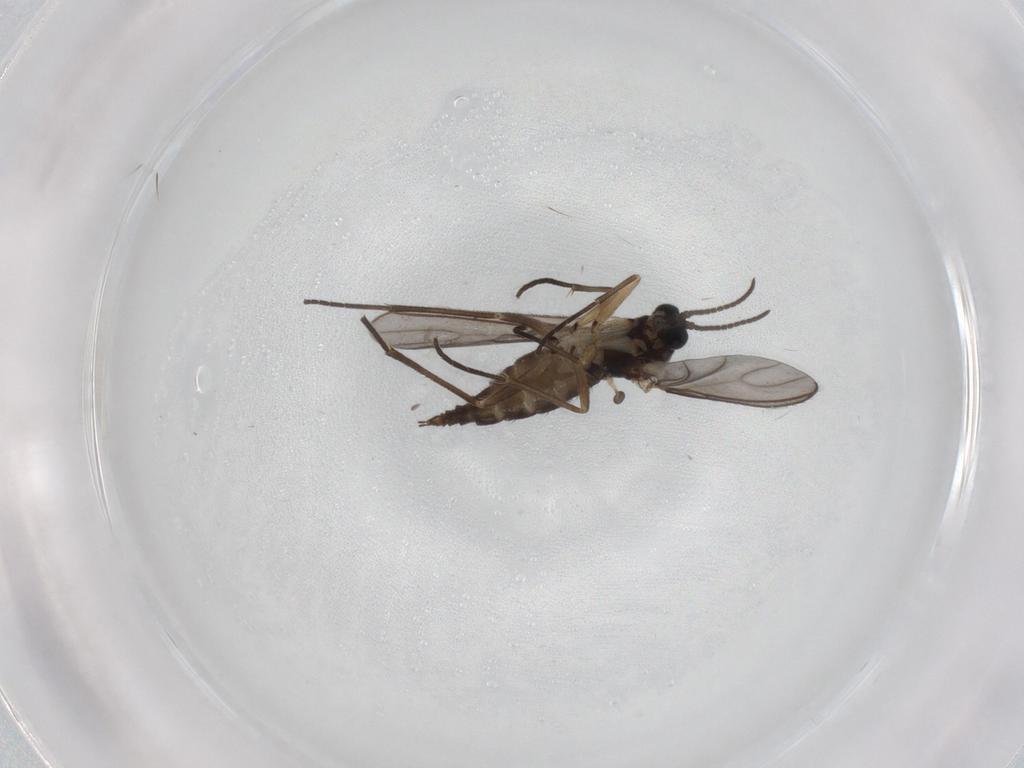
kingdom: Animalia
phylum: Arthropoda
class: Insecta
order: Diptera
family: Sciaridae
